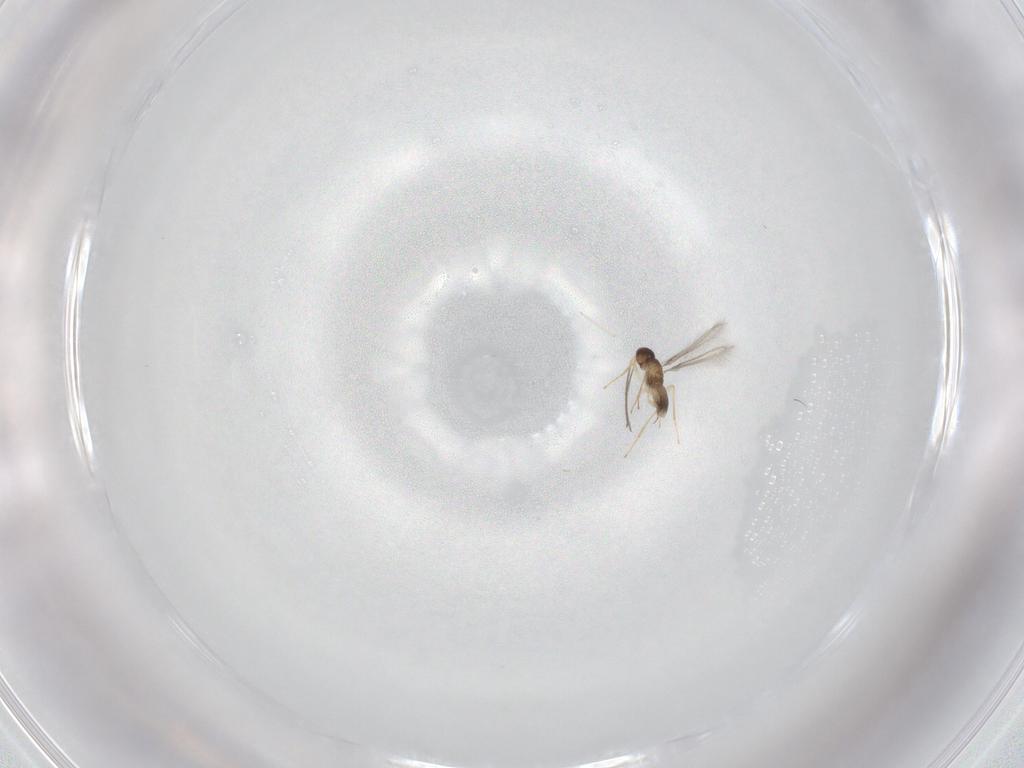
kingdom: Animalia
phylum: Arthropoda
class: Insecta
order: Hymenoptera
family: Mymaridae
